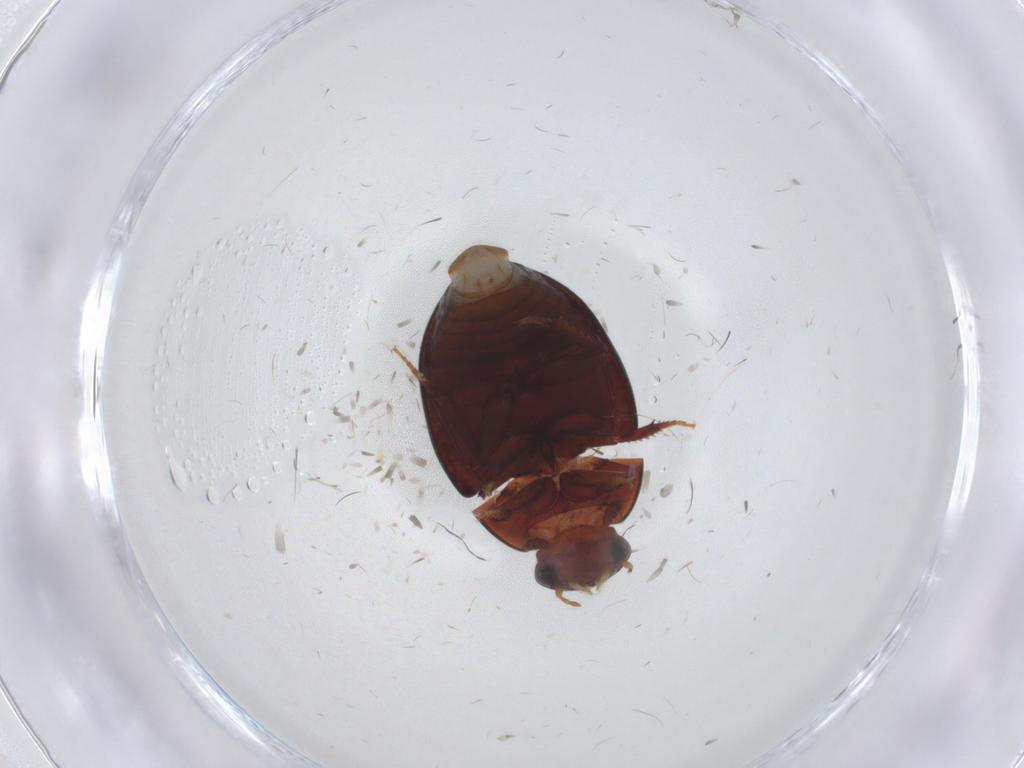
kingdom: Animalia
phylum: Arthropoda
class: Insecta
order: Coleoptera
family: Hydrophilidae
